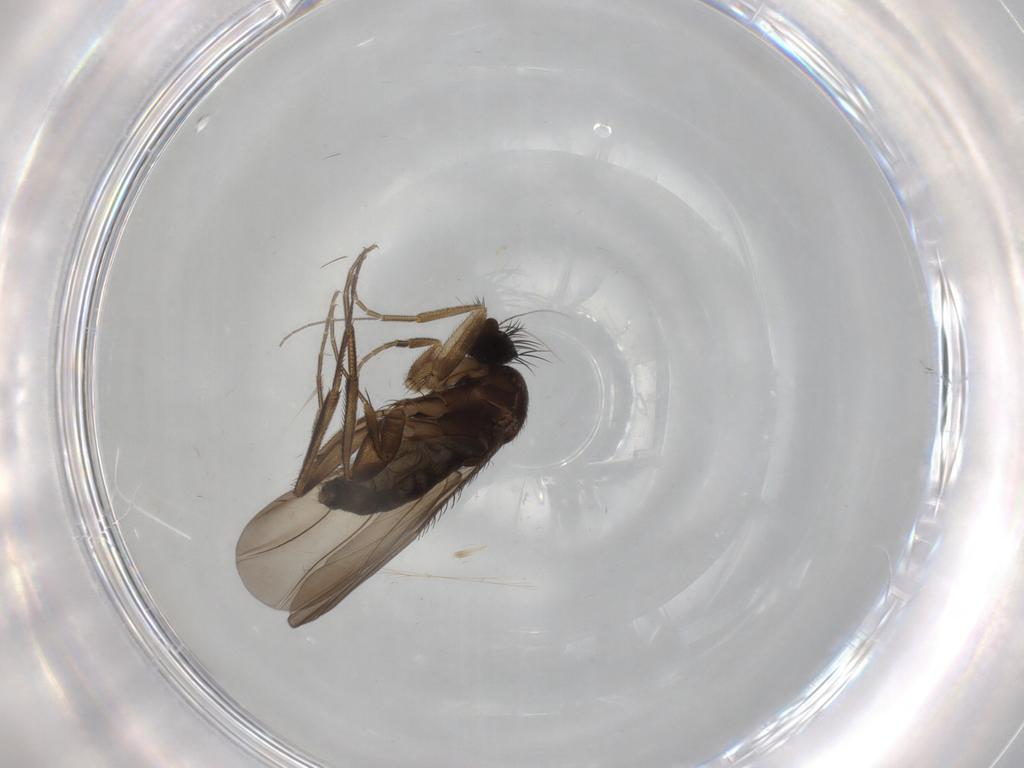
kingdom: Animalia
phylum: Arthropoda
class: Insecta
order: Diptera
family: Phoridae
